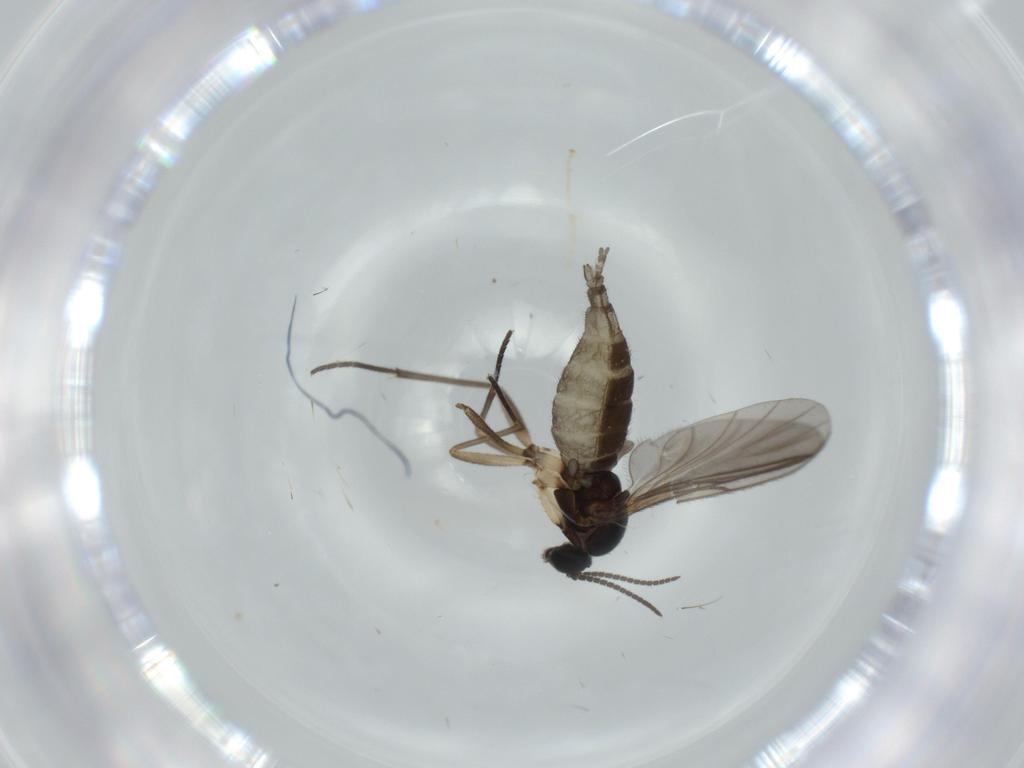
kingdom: Animalia
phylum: Arthropoda
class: Insecta
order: Diptera
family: Sciaridae
